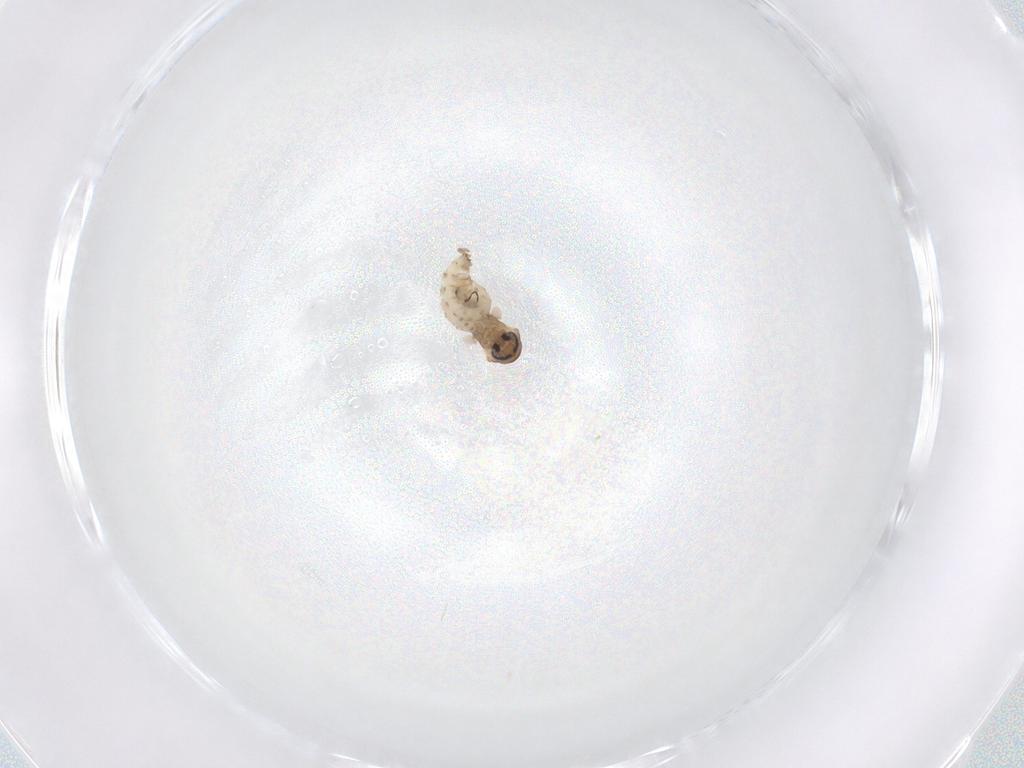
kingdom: Animalia
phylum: Arthropoda
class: Insecta
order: Diptera
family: Psychodidae
